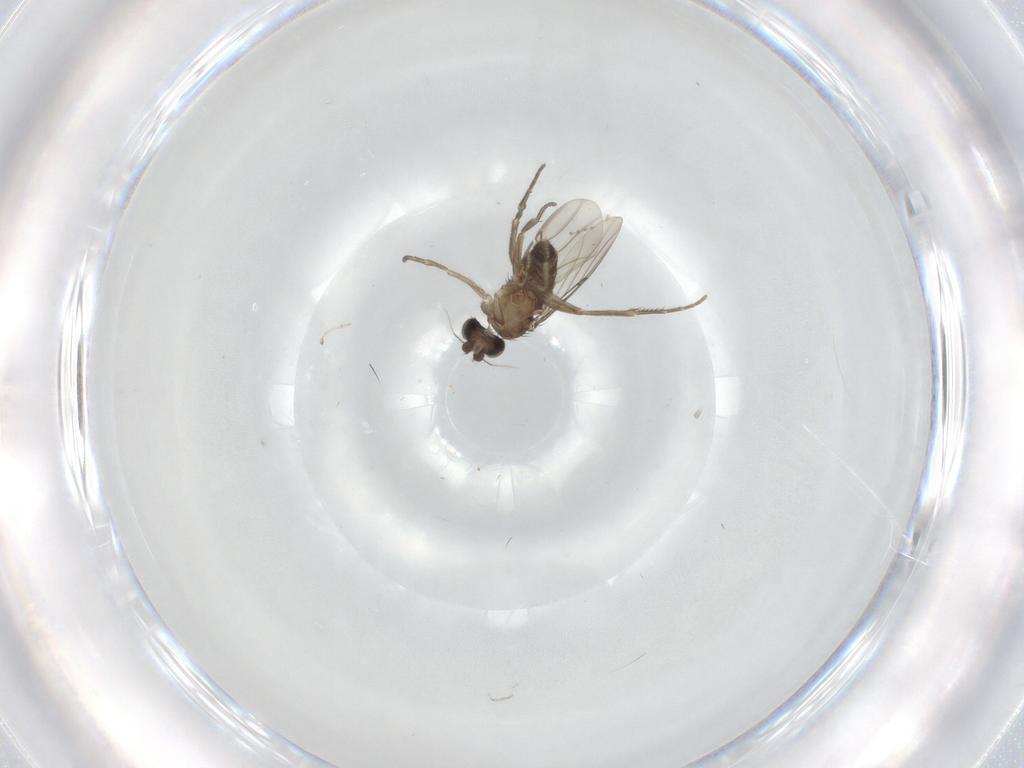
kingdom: Animalia
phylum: Arthropoda
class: Insecta
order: Diptera
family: Phoridae
